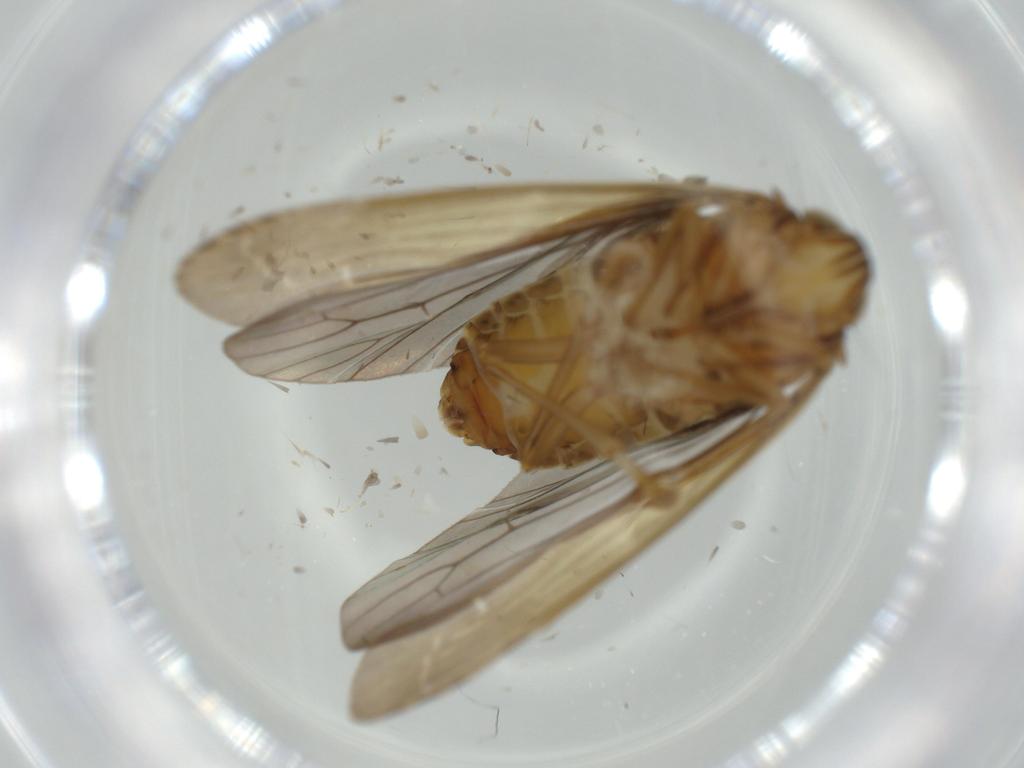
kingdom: Animalia
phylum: Arthropoda
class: Insecta
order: Hemiptera
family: Achilidae
